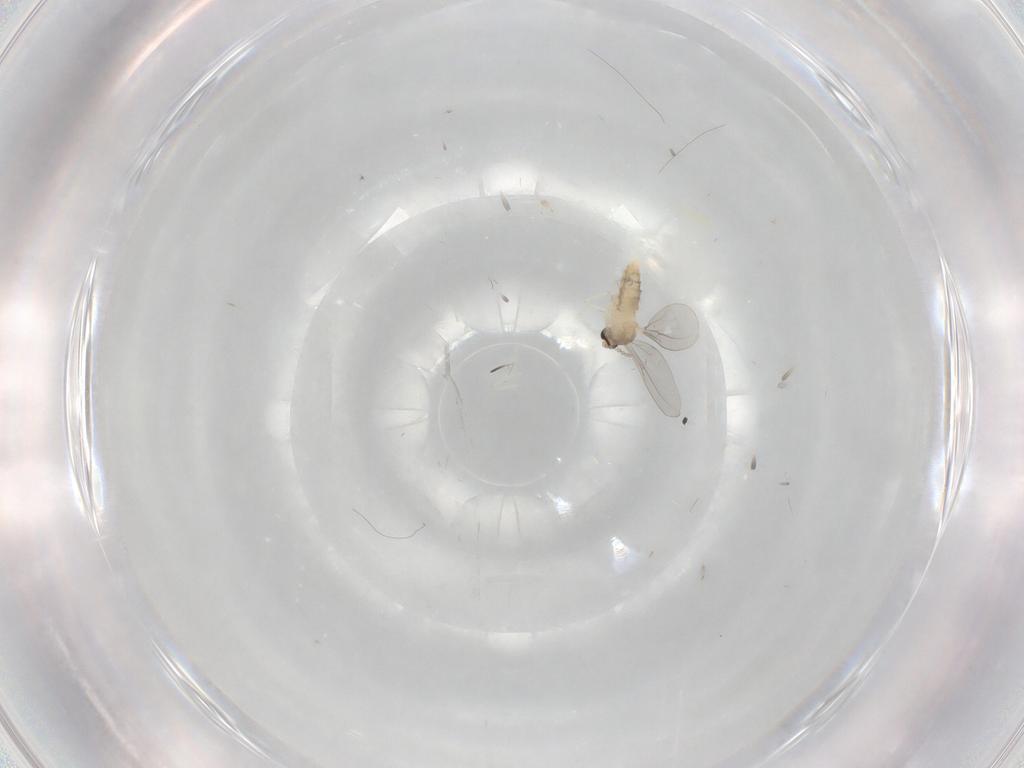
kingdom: Animalia
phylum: Arthropoda
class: Insecta
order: Diptera
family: Cecidomyiidae
